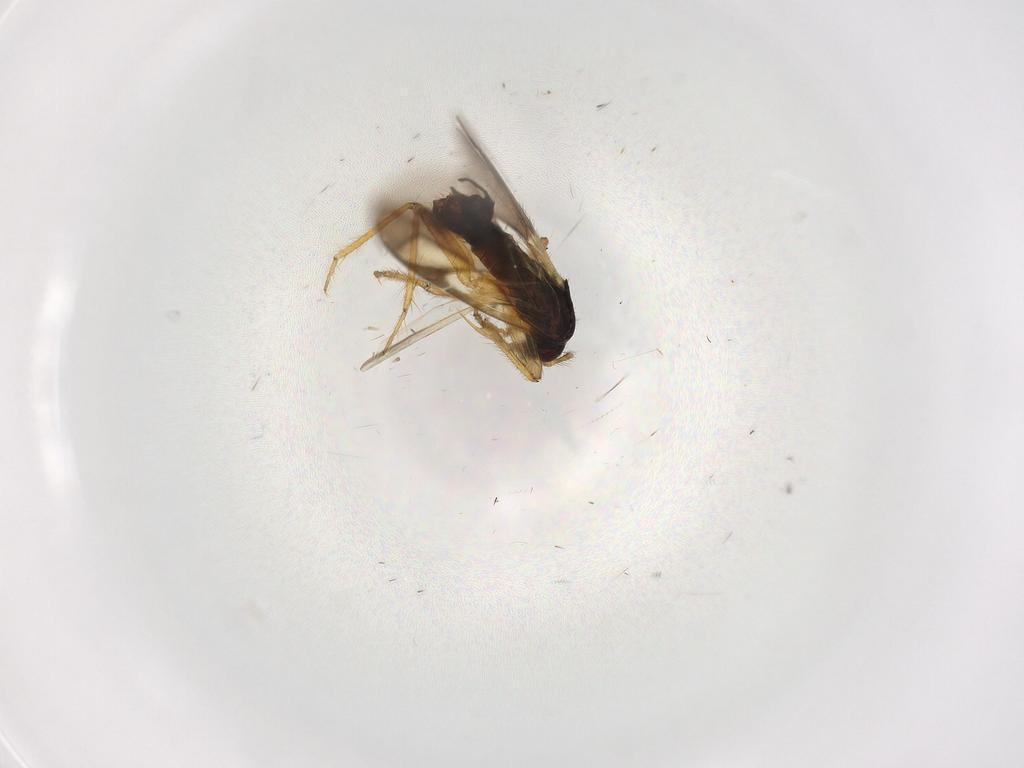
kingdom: Animalia
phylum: Arthropoda
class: Insecta
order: Hemiptera
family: Ceratocombidae
